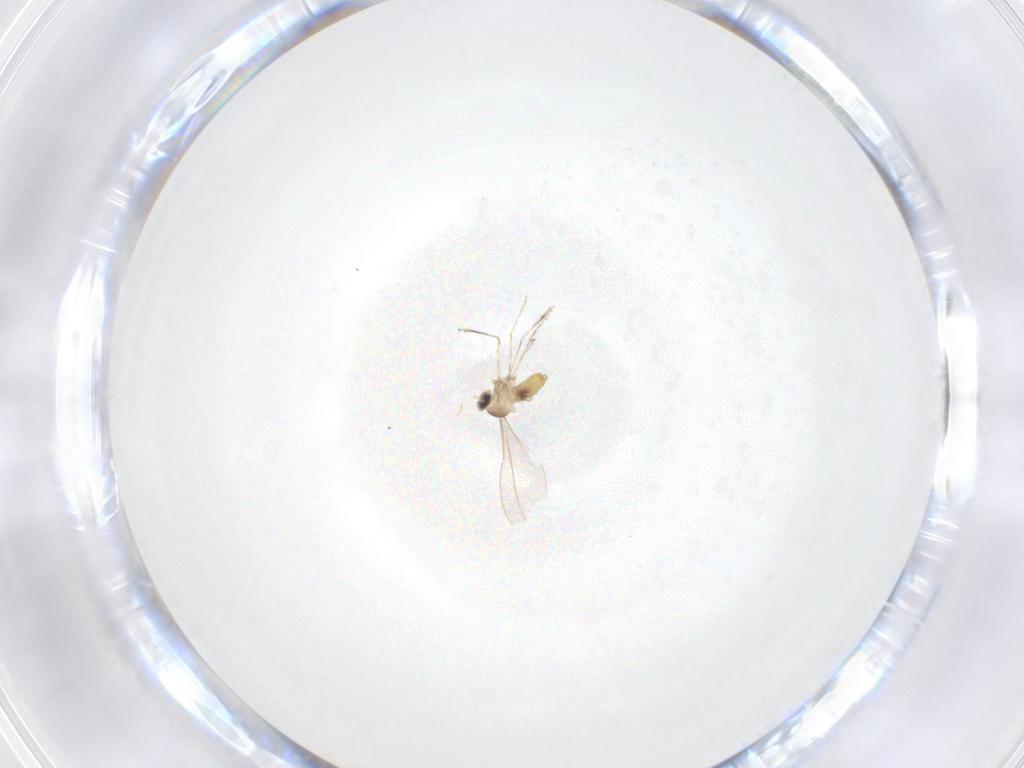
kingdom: Animalia
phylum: Arthropoda
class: Insecta
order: Diptera
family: Cecidomyiidae
